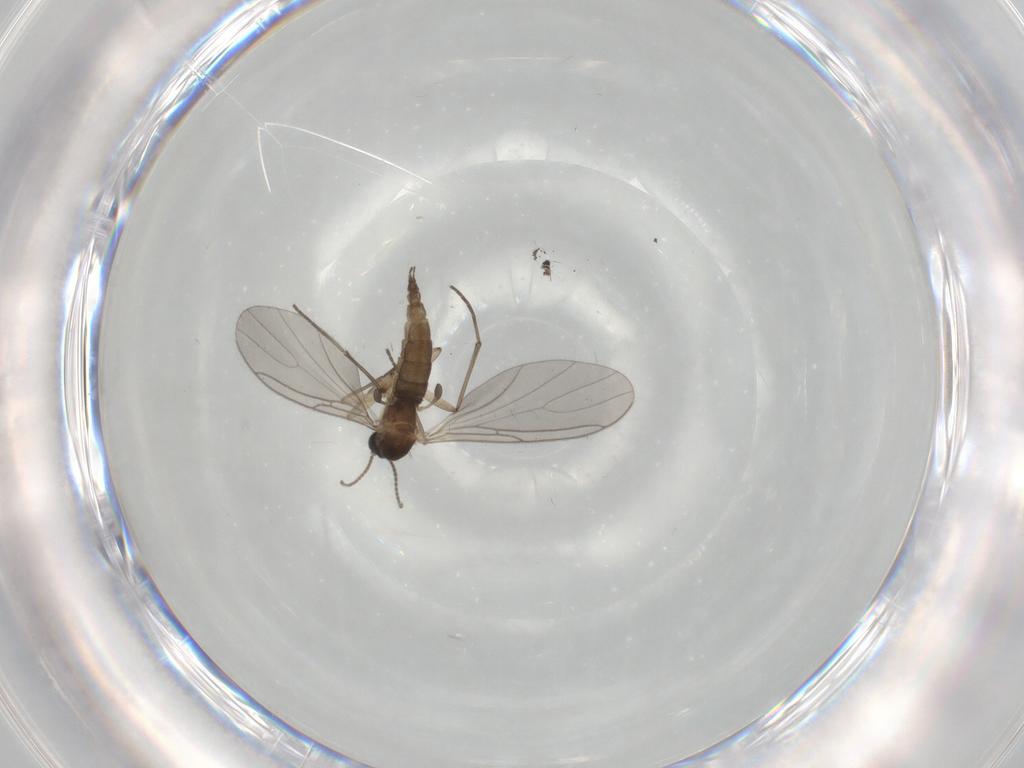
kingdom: Animalia
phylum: Arthropoda
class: Insecta
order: Diptera
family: Sciaridae
